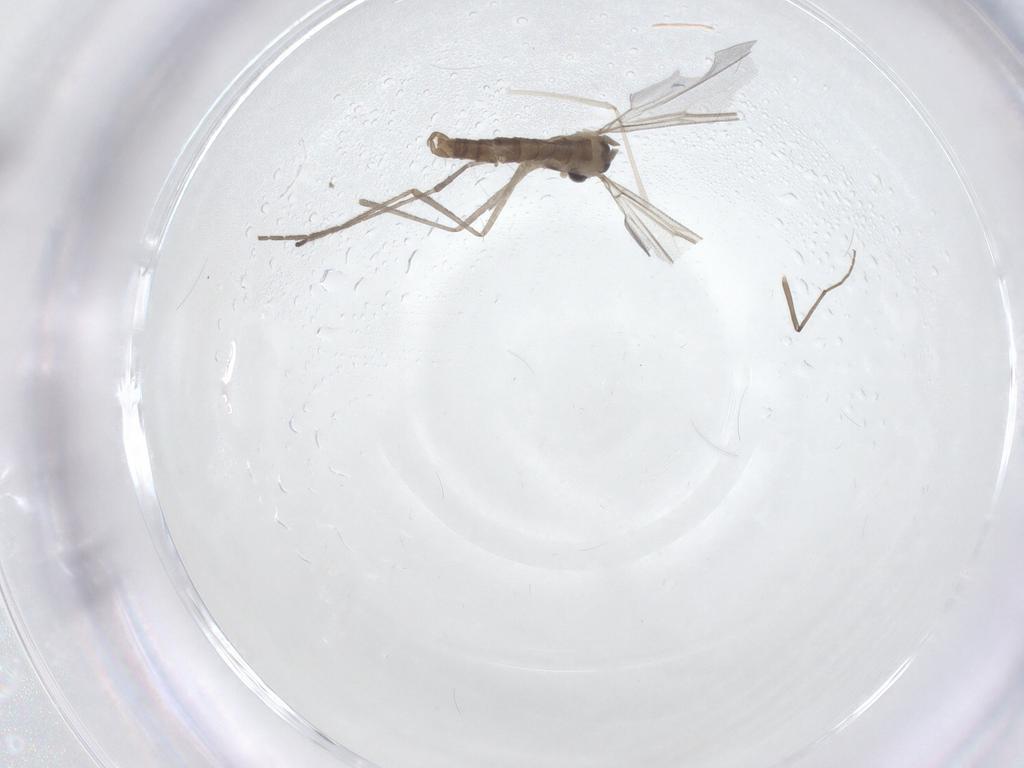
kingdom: Animalia
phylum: Arthropoda
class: Insecta
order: Diptera
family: Cecidomyiidae
